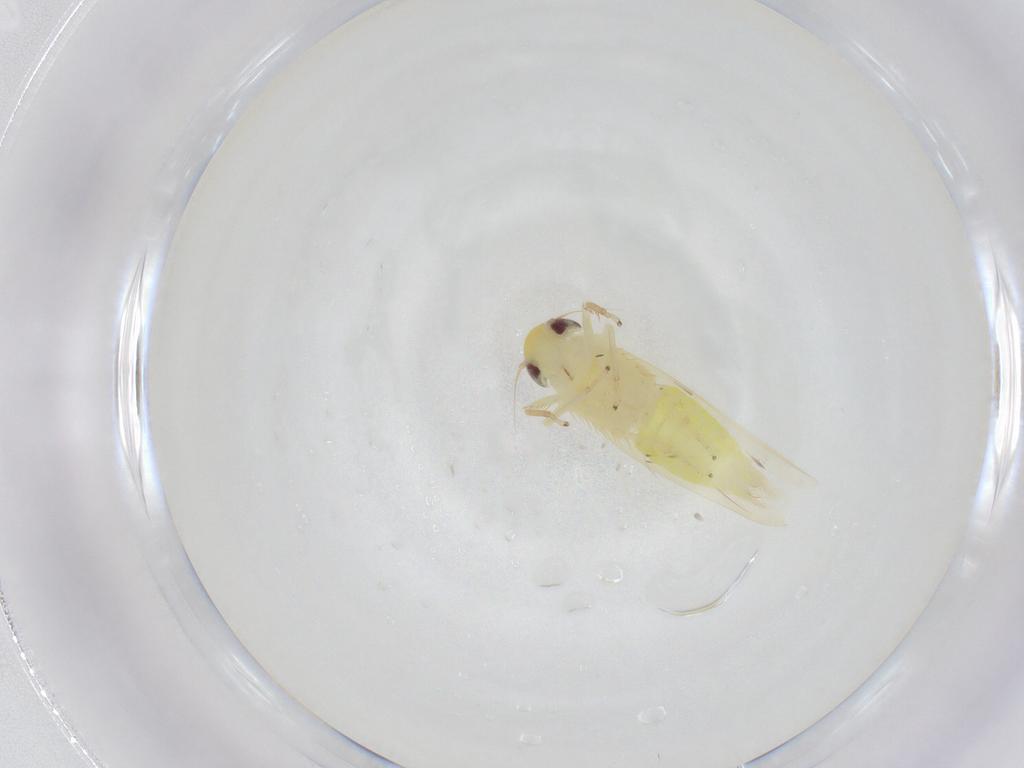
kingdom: Animalia
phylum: Arthropoda
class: Insecta
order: Hemiptera
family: Cicadellidae
